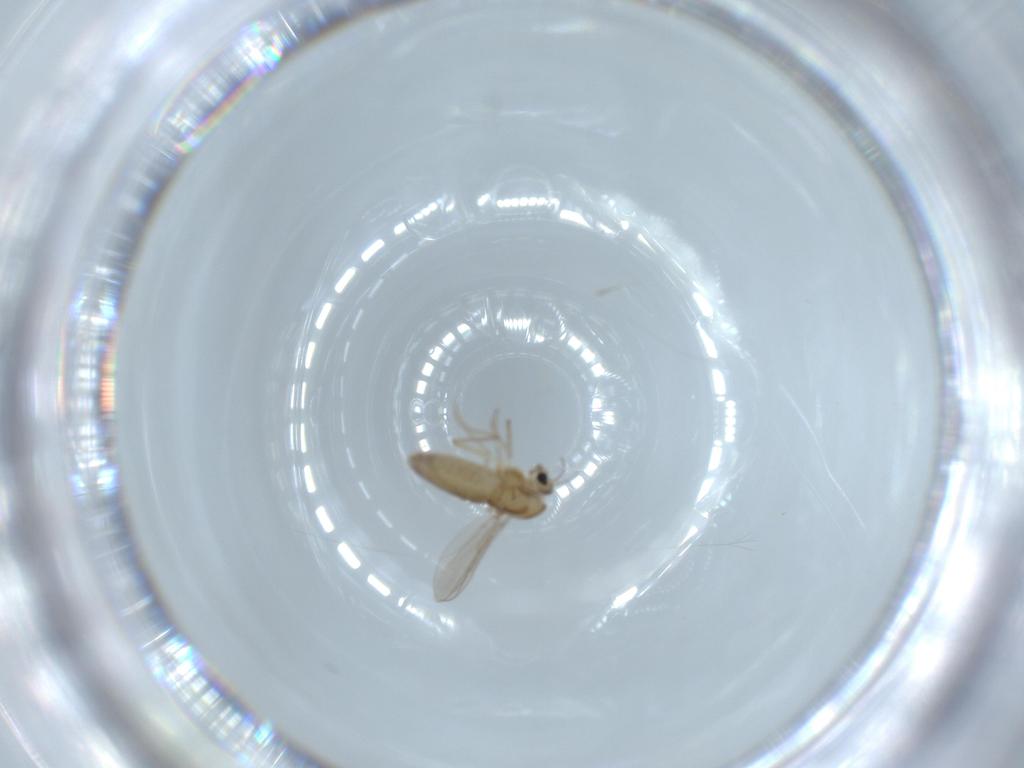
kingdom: Animalia
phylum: Arthropoda
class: Insecta
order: Diptera
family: Chironomidae
